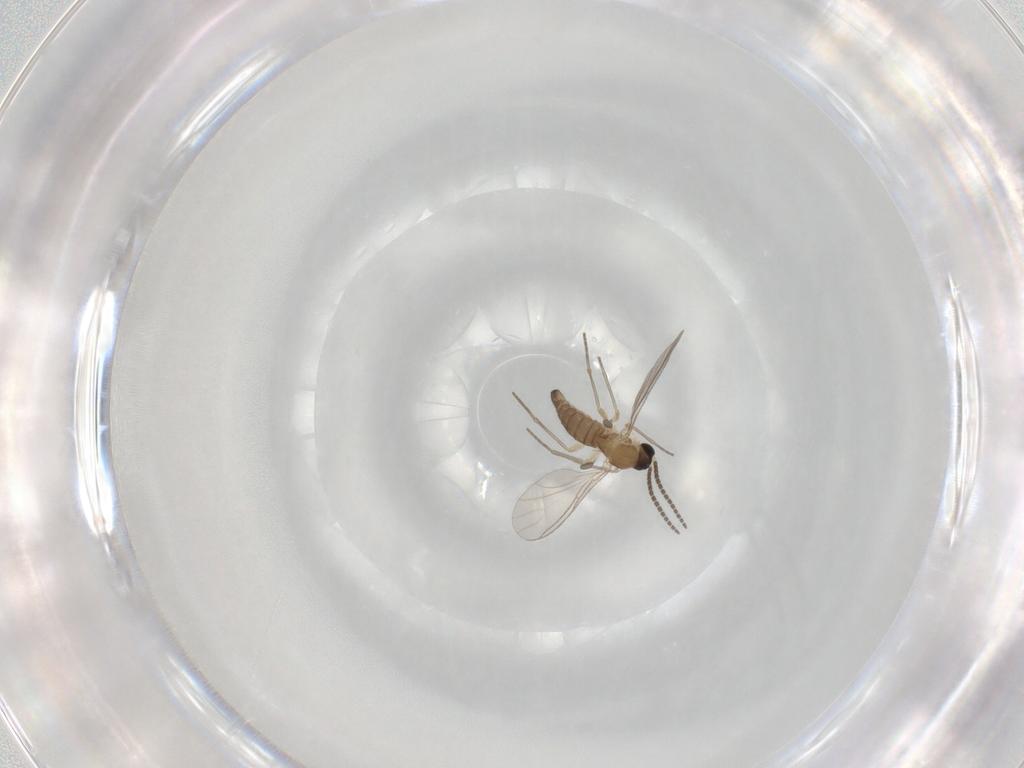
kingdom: Animalia
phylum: Arthropoda
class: Insecta
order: Diptera
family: Sciaridae
